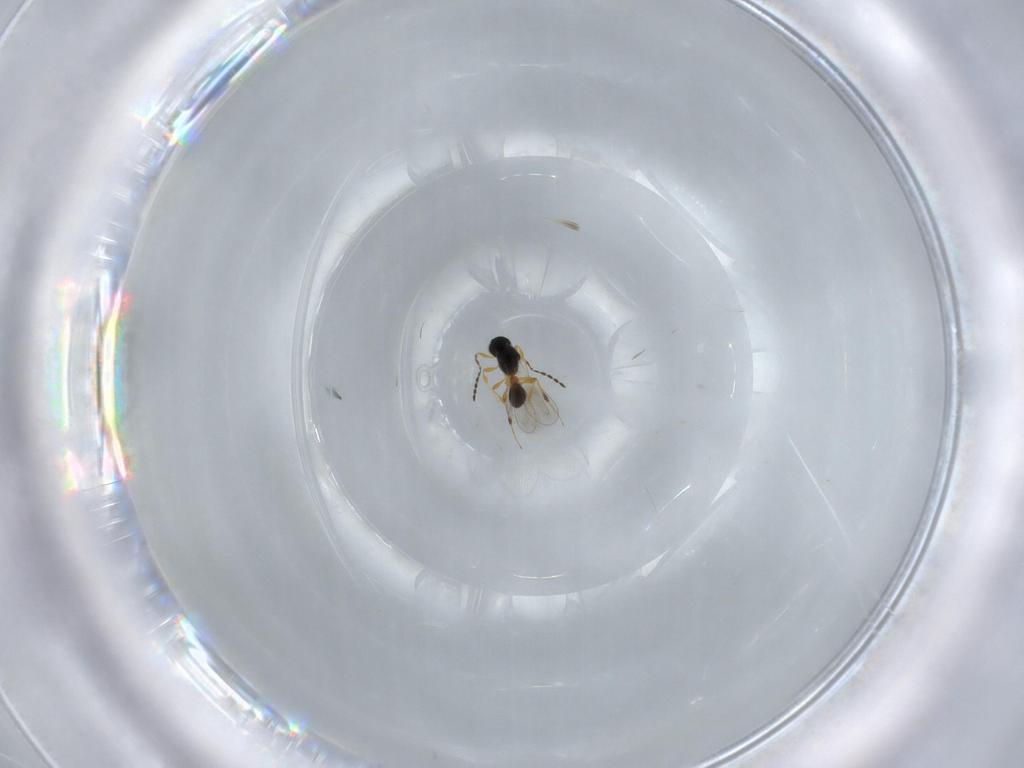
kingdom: Animalia
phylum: Arthropoda
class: Insecta
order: Hymenoptera
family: Platygastridae
